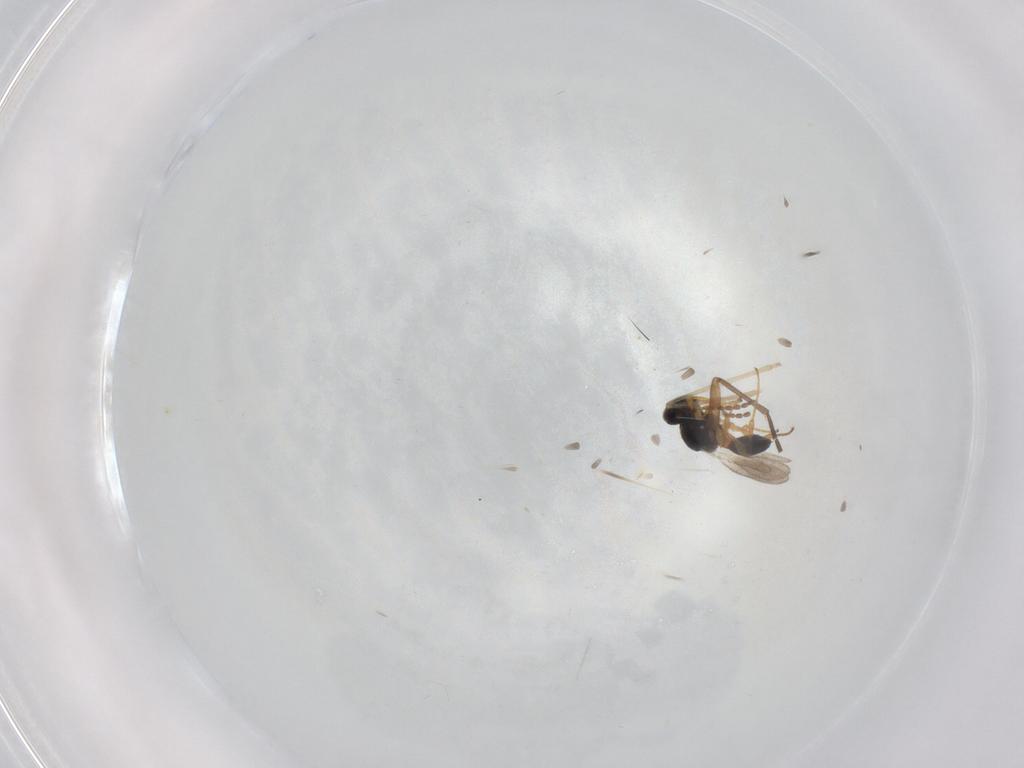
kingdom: Animalia
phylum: Arthropoda
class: Insecta
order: Hymenoptera
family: Platygastridae
